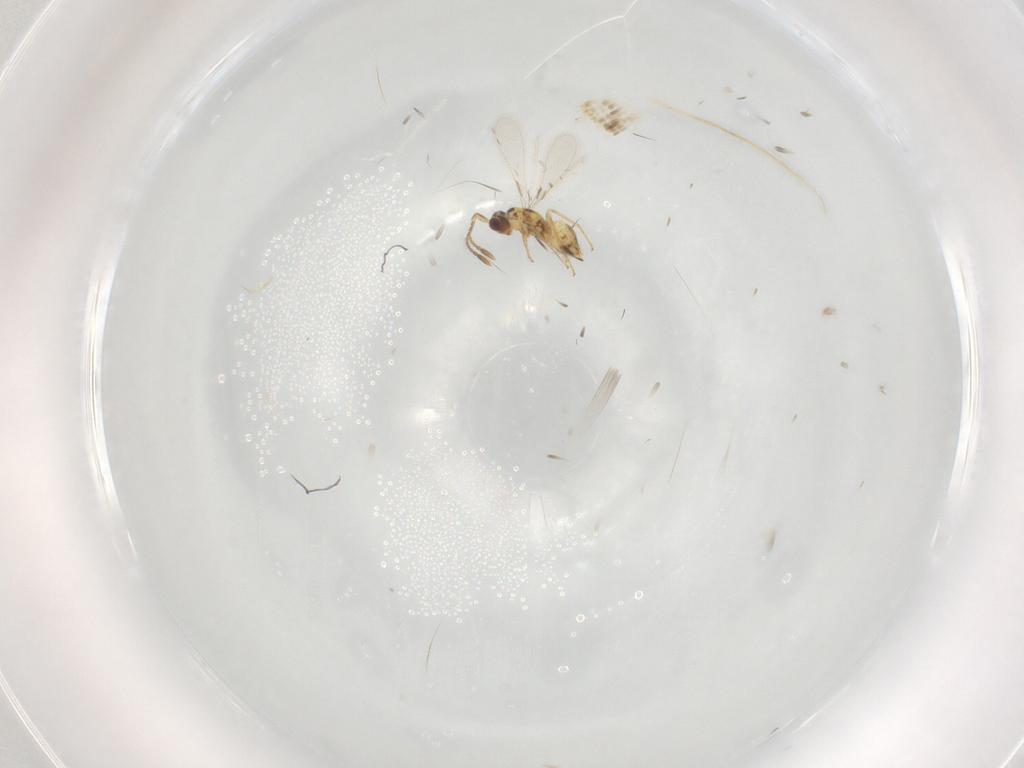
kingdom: Animalia
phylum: Arthropoda
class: Insecta
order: Hymenoptera
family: Mymaridae
